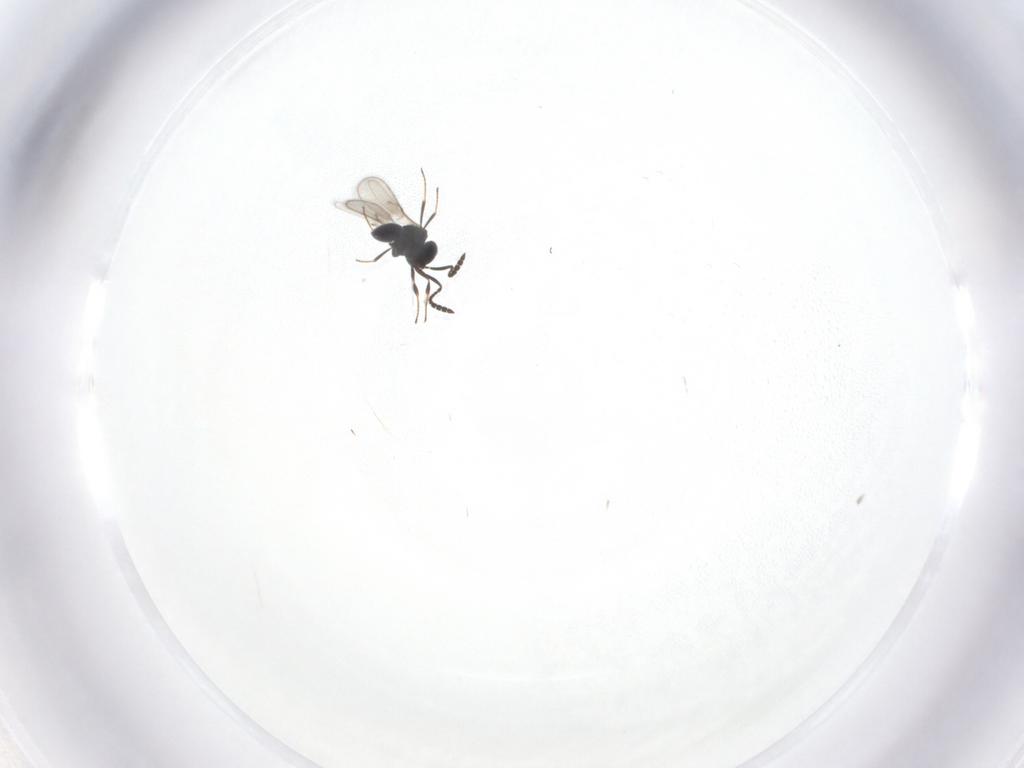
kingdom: Animalia
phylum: Arthropoda
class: Insecta
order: Hymenoptera
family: Scelionidae
